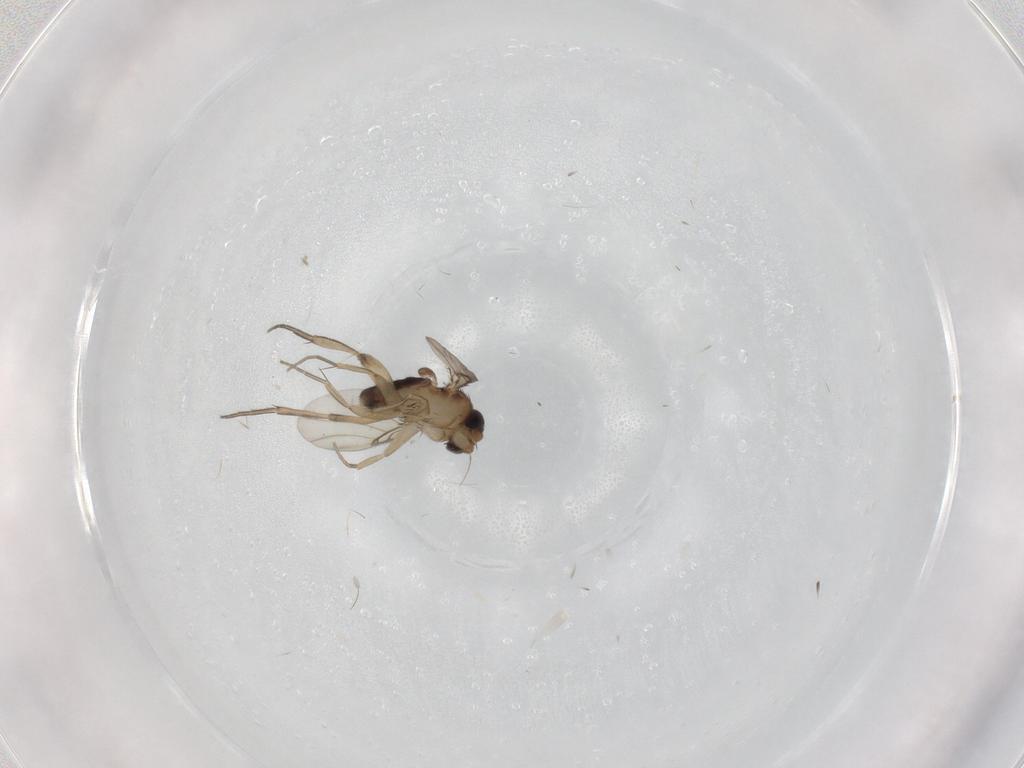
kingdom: Animalia
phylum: Arthropoda
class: Insecta
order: Diptera
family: Phoridae
